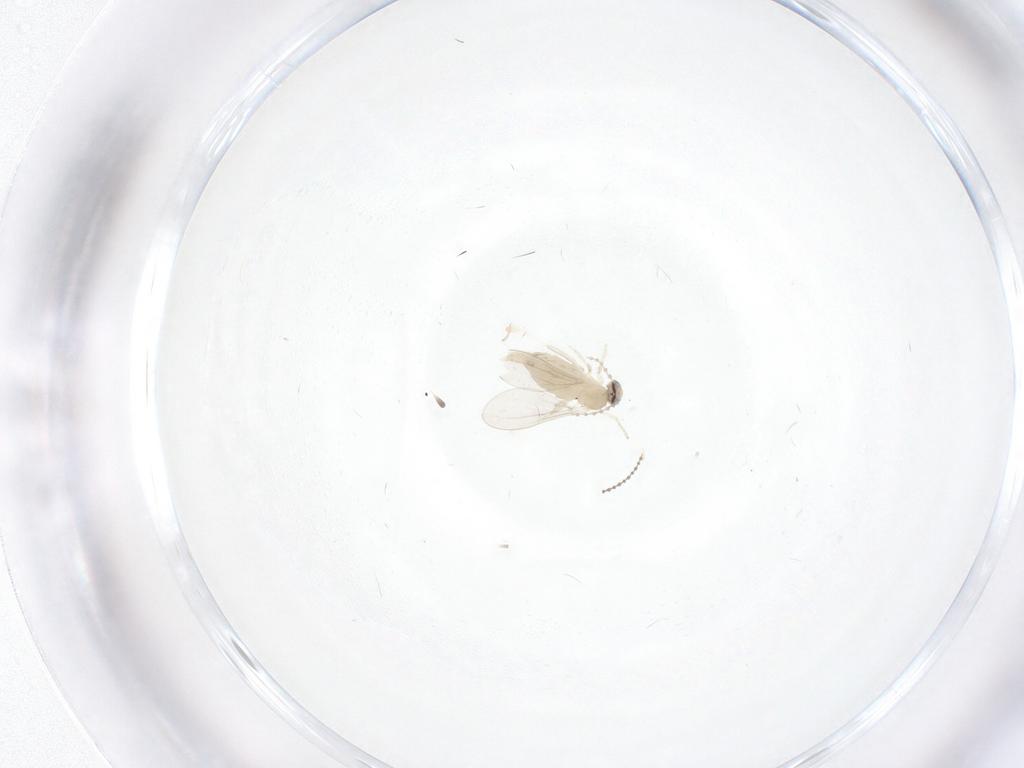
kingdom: Animalia
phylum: Arthropoda
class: Insecta
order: Diptera
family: Cecidomyiidae
